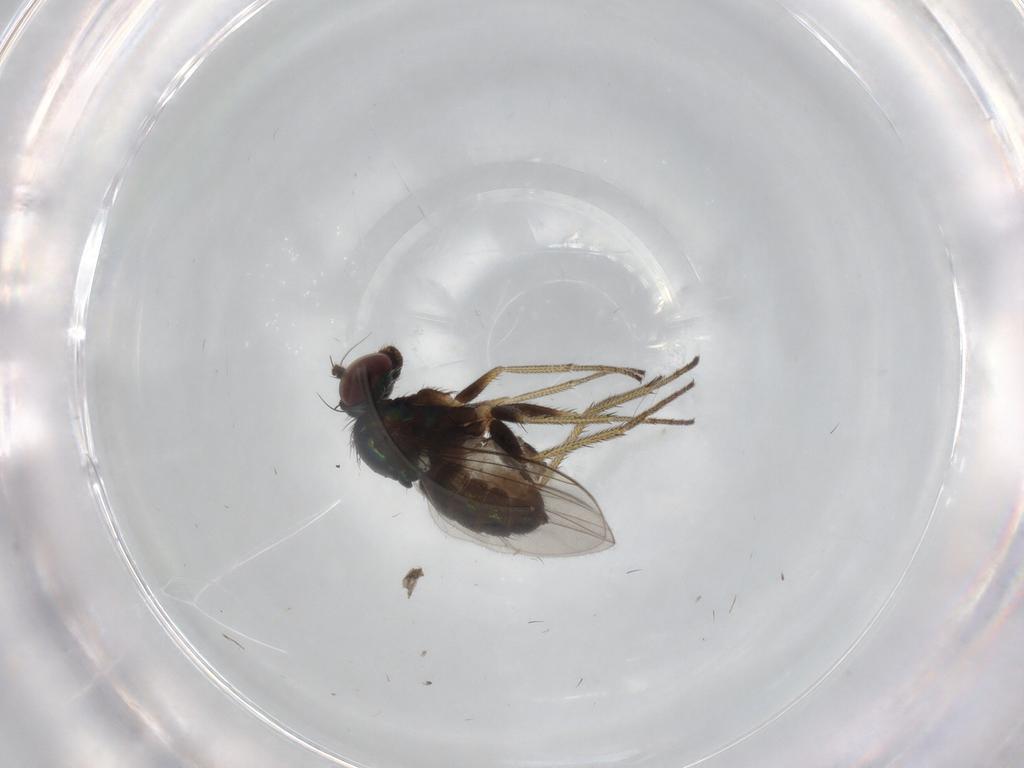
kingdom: Animalia
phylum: Arthropoda
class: Insecta
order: Diptera
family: Dolichopodidae
